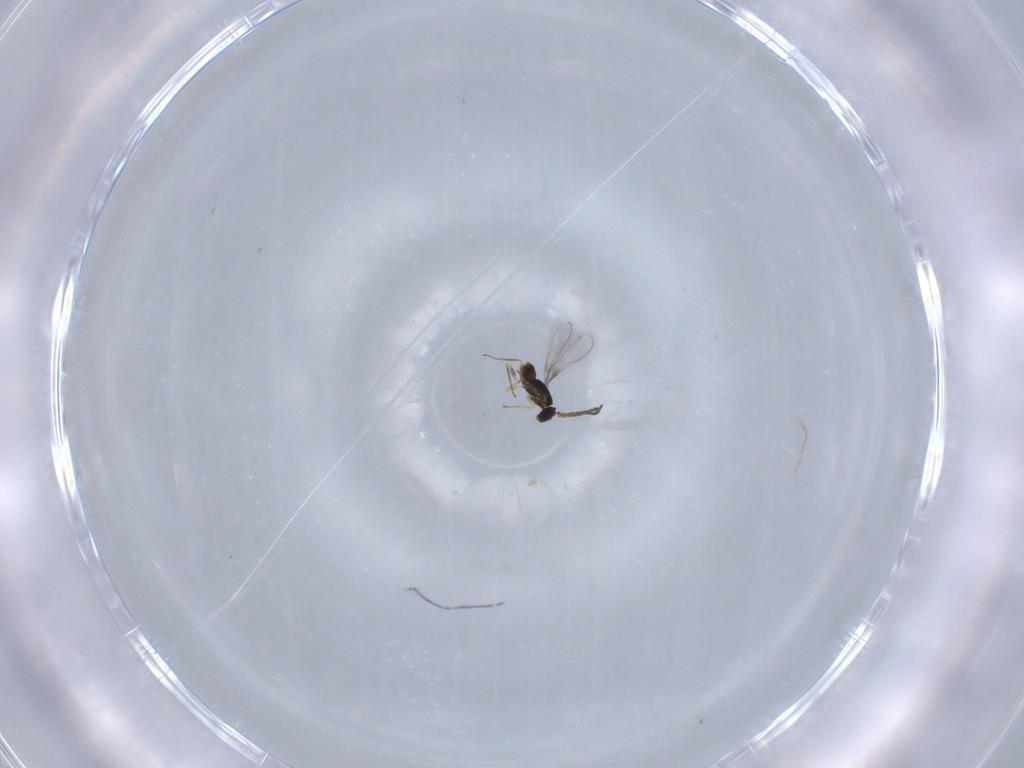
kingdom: Animalia
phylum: Arthropoda
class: Insecta
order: Hymenoptera
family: Mymaridae
